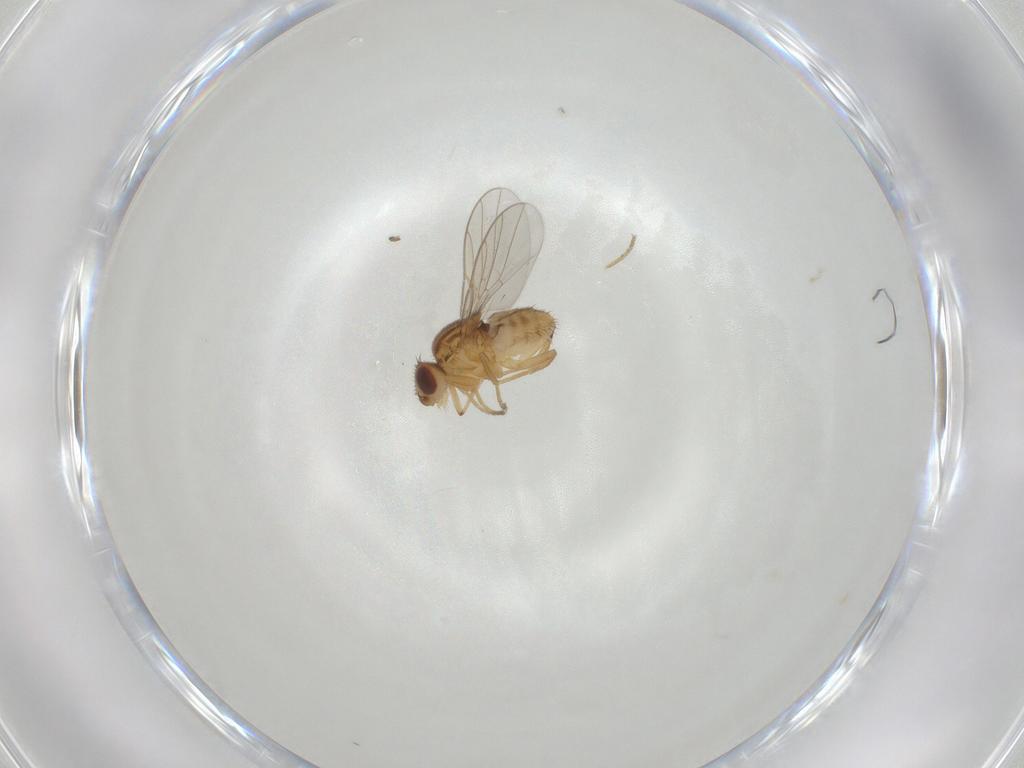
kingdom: Animalia
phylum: Arthropoda
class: Insecta
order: Diptera
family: Chloropidae
